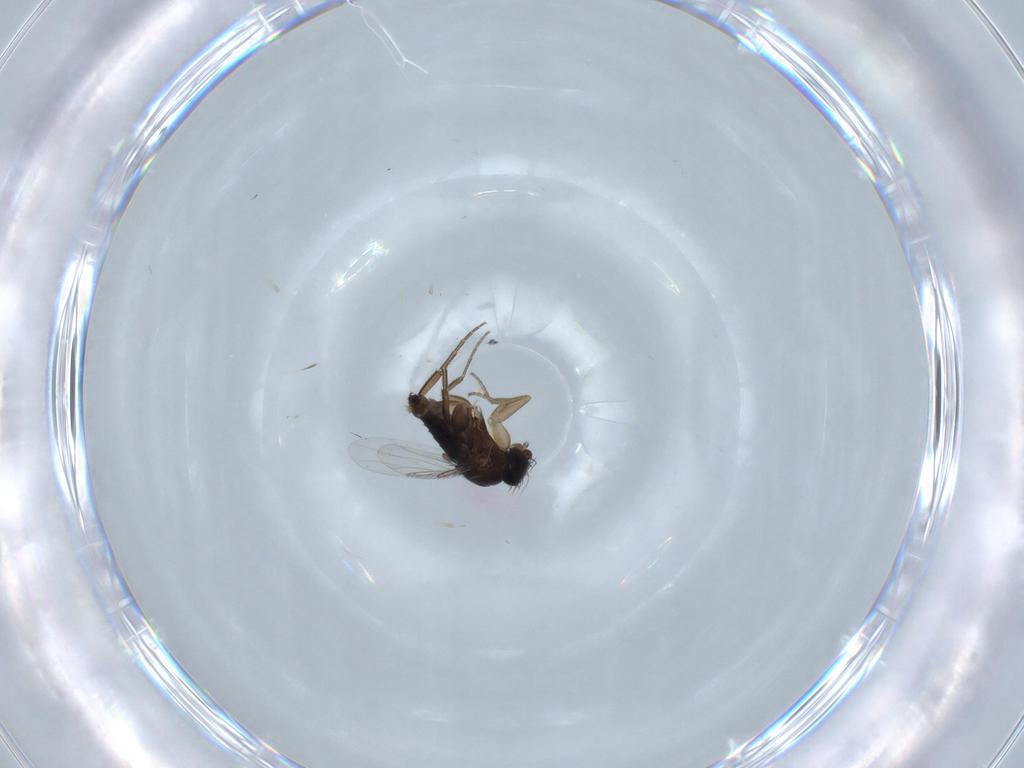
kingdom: Animalia
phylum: Arthropoda
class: Insecta
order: Diptera
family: Phoridae
